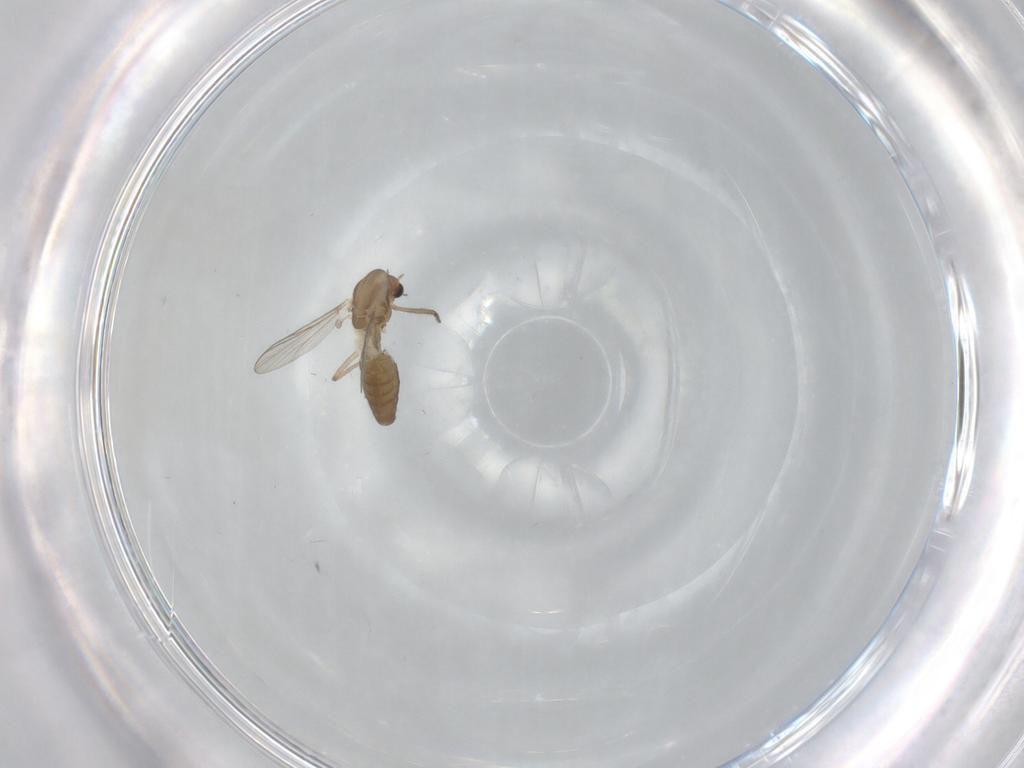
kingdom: Animalia
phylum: Arthropoda
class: Insecta
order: Diptera
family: Chironomidae
